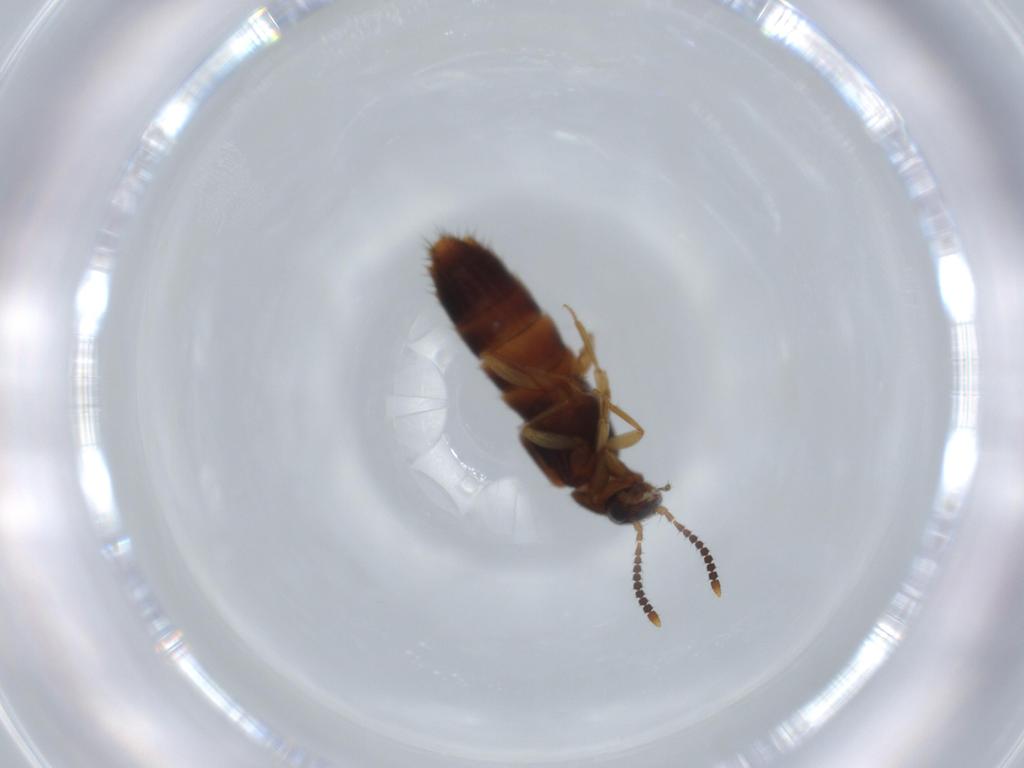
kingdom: Animalia
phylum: Arthropoda
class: Insecta
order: Coleoptera
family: Staphylinidae
